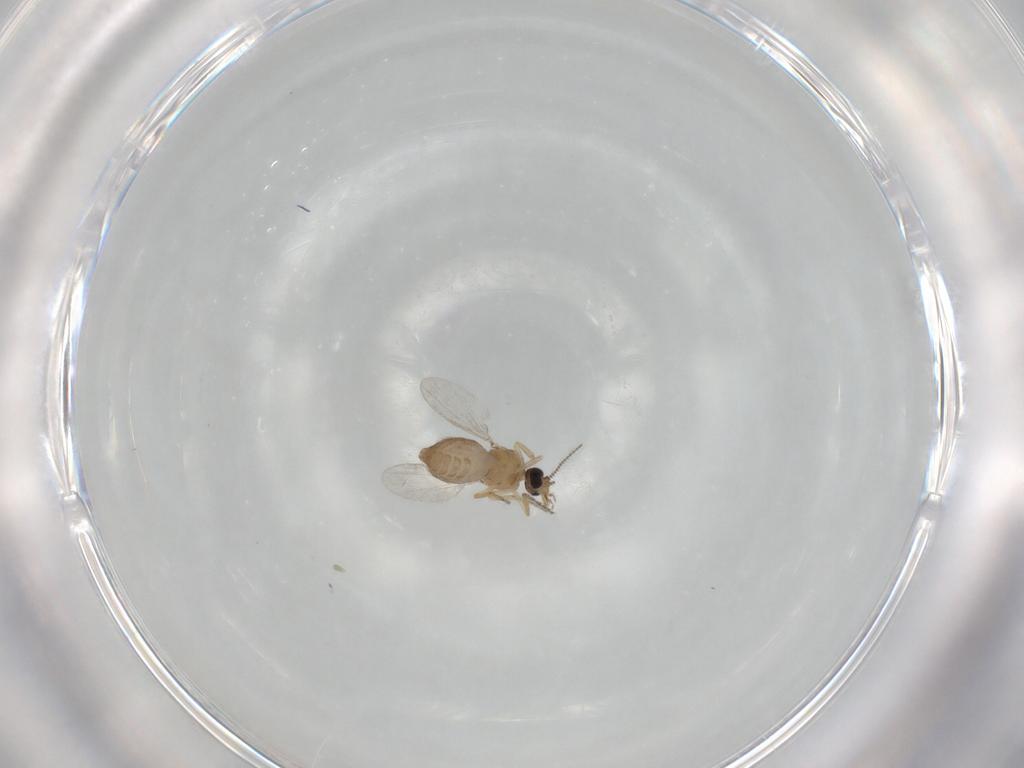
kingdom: Animalia
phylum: Arthropoda
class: Insecta
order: Diptera
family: Ceratopogonidae
